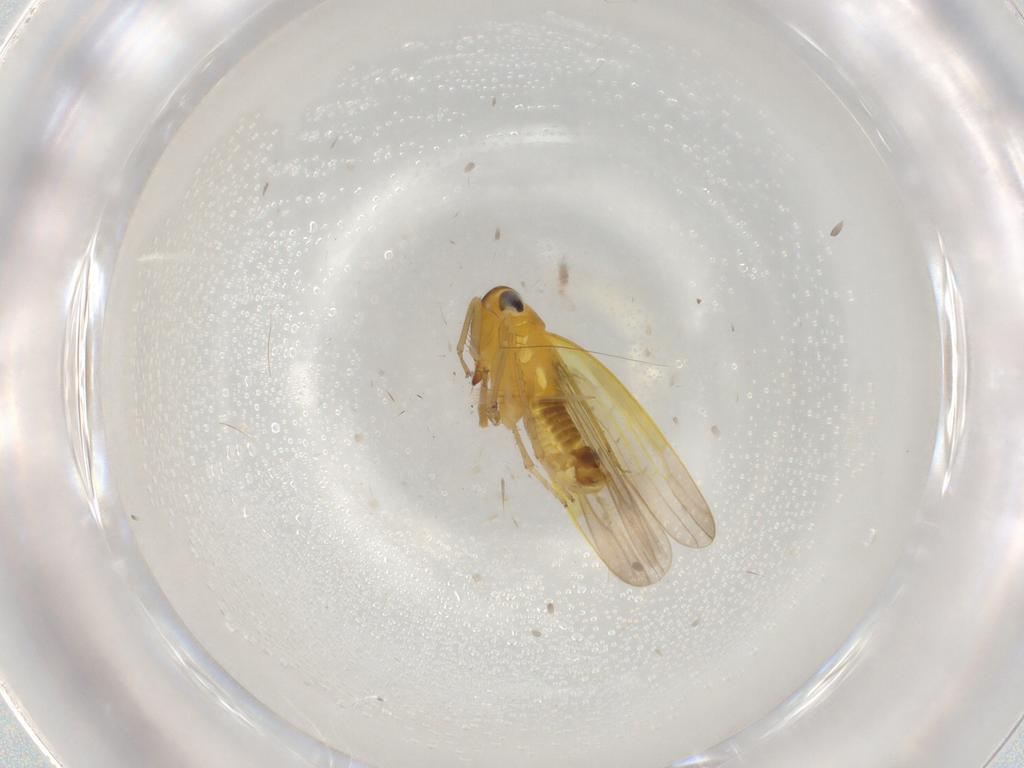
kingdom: Animalia
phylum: Arthropoda
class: Insecta
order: Hemiptera
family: Cicadellidae
